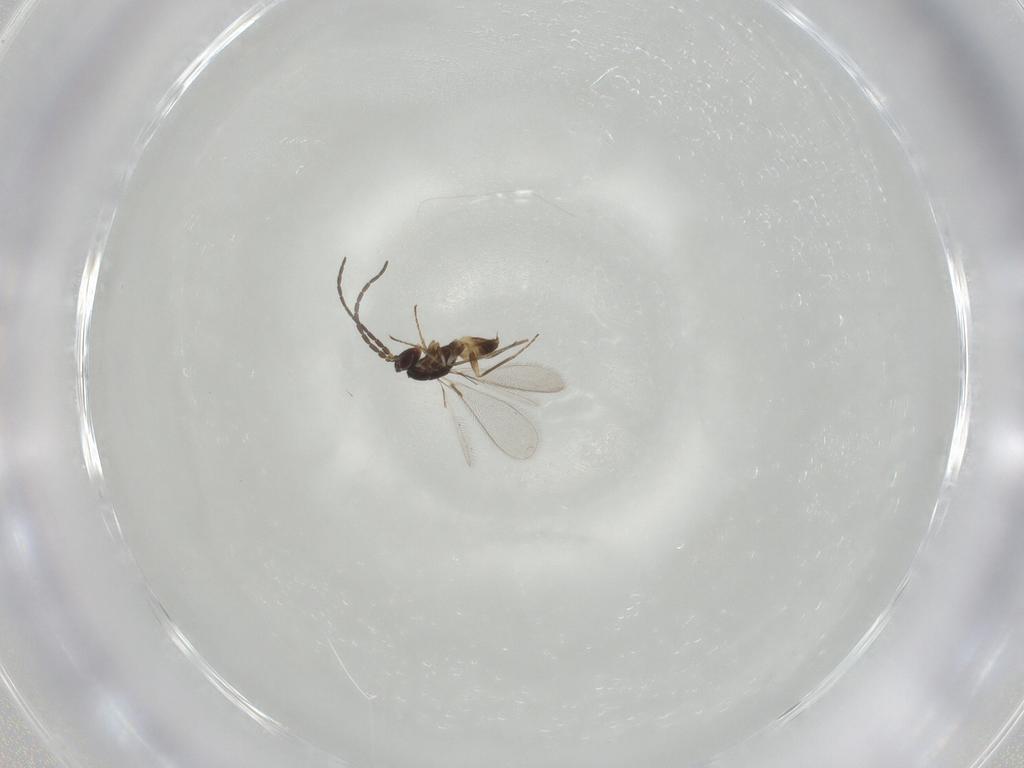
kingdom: Animalia
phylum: Arthropoda
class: Insecta
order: Hymenoptera
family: Mymaridae
